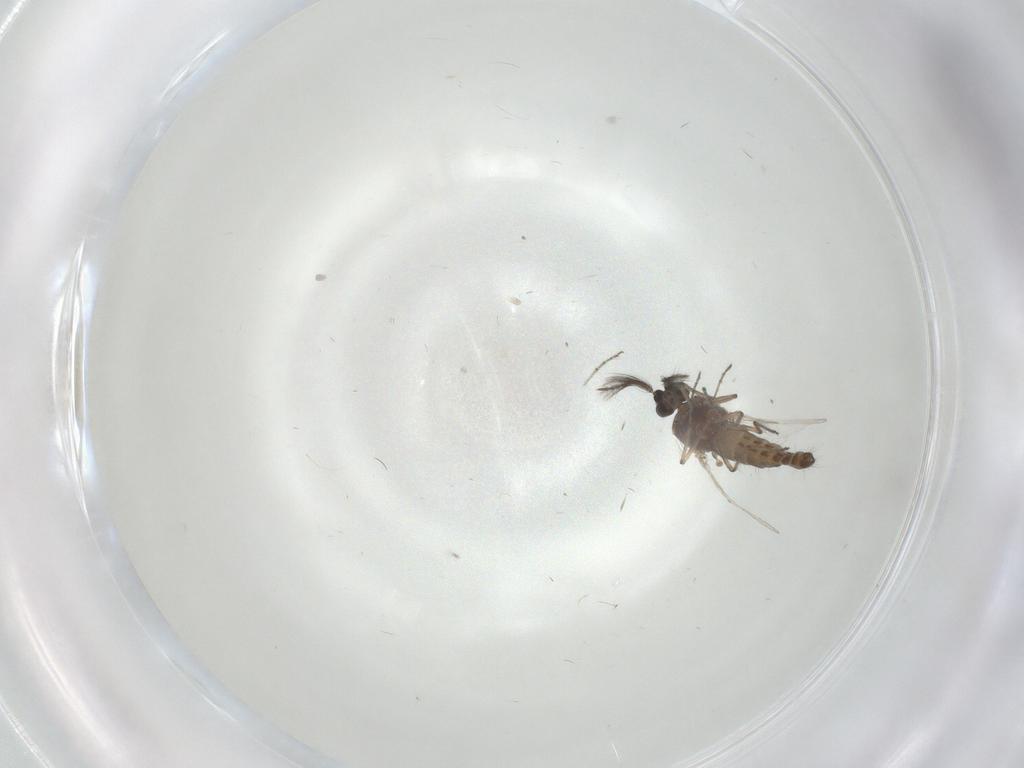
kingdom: Animalia
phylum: Arthropoda
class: Insecta
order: Diptera
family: Ceratopogonidae
